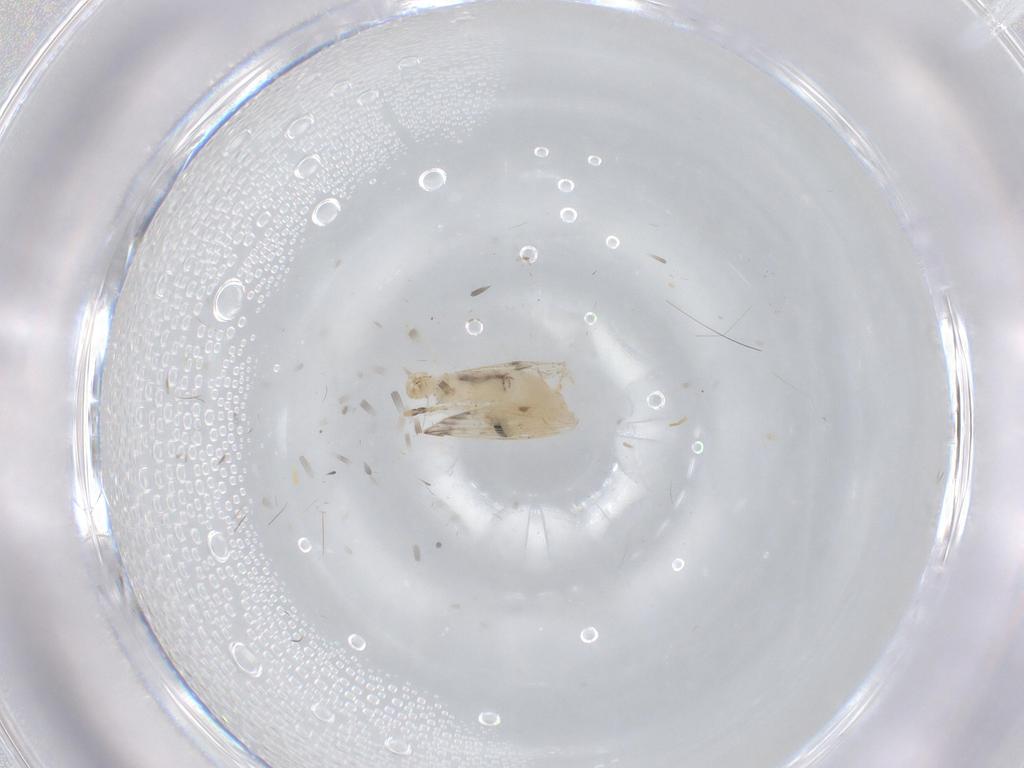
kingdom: Animalia
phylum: Arthropoda
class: Insecta
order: Diptera
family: Psychodidae
